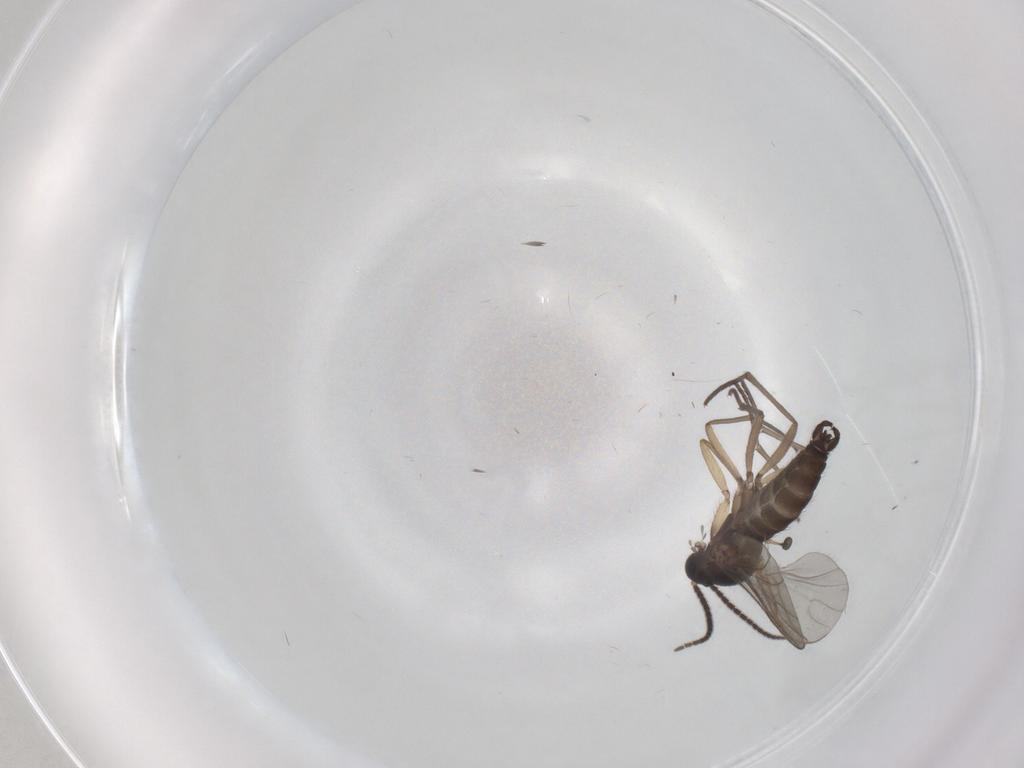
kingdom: Animalia
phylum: Arthropoda
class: Insecta
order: Diptera
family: Sciaridae
